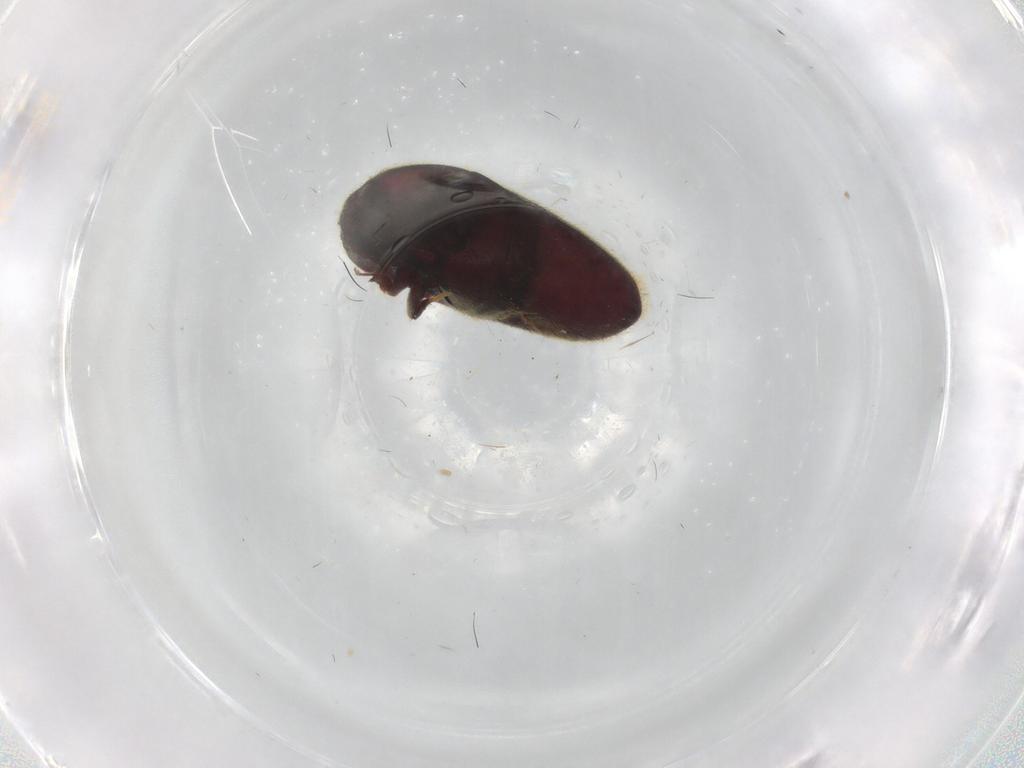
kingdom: Animalia
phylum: Arthropoda
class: Insecta
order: Coleoptera
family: Throscidae
